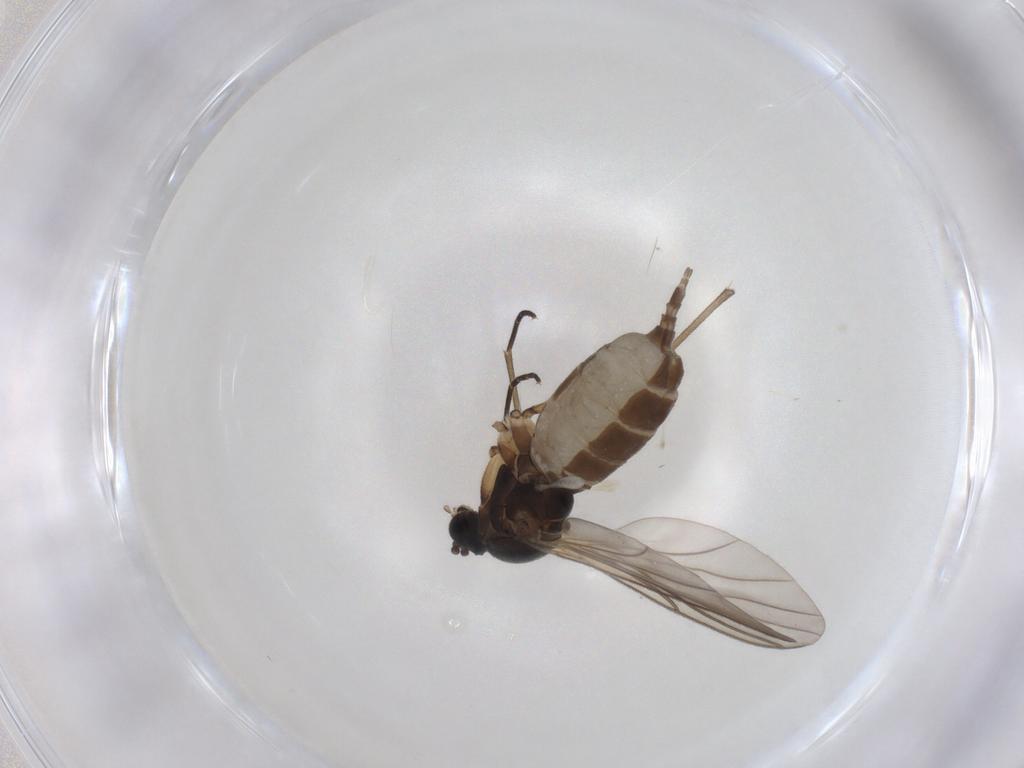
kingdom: Animalia
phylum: Arthropoda
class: Insecta
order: Diptera
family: Sciaridae
